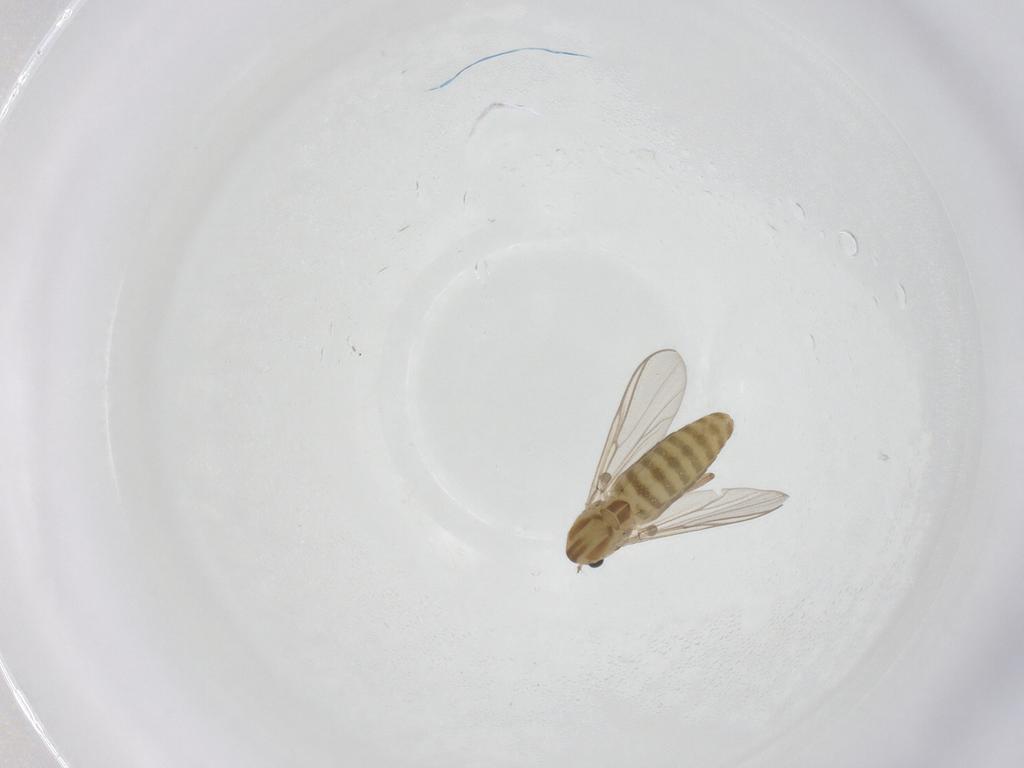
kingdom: Animalia
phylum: Arthropoda
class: Insecta
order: Diptera
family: Chironomidae
